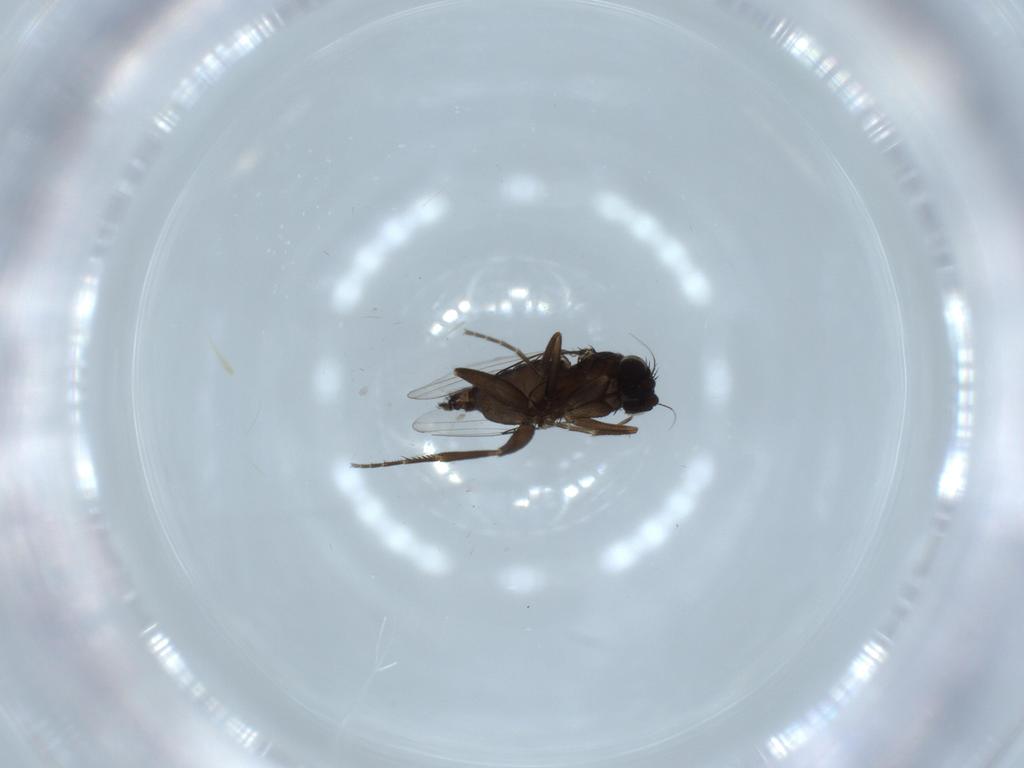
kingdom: Animalia
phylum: Arthropoda
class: Insecta
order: Diptera
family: Phoridae
